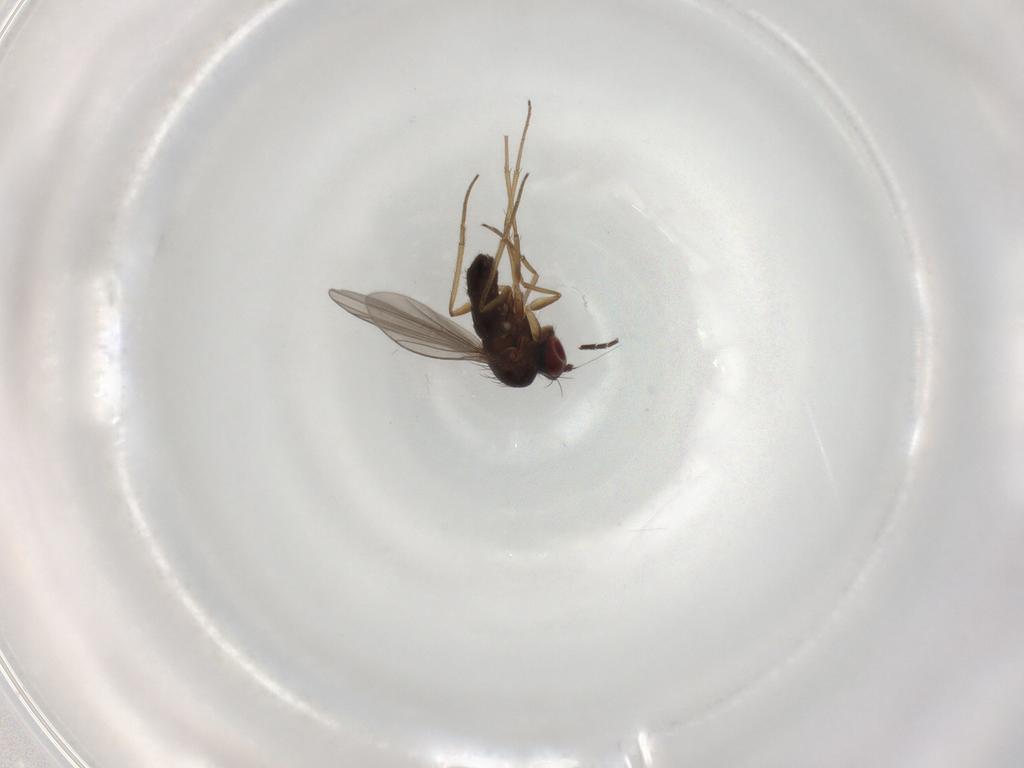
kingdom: Animalia
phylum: Arthropoda
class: Insecta
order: Diptera
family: Dolichopodidae
